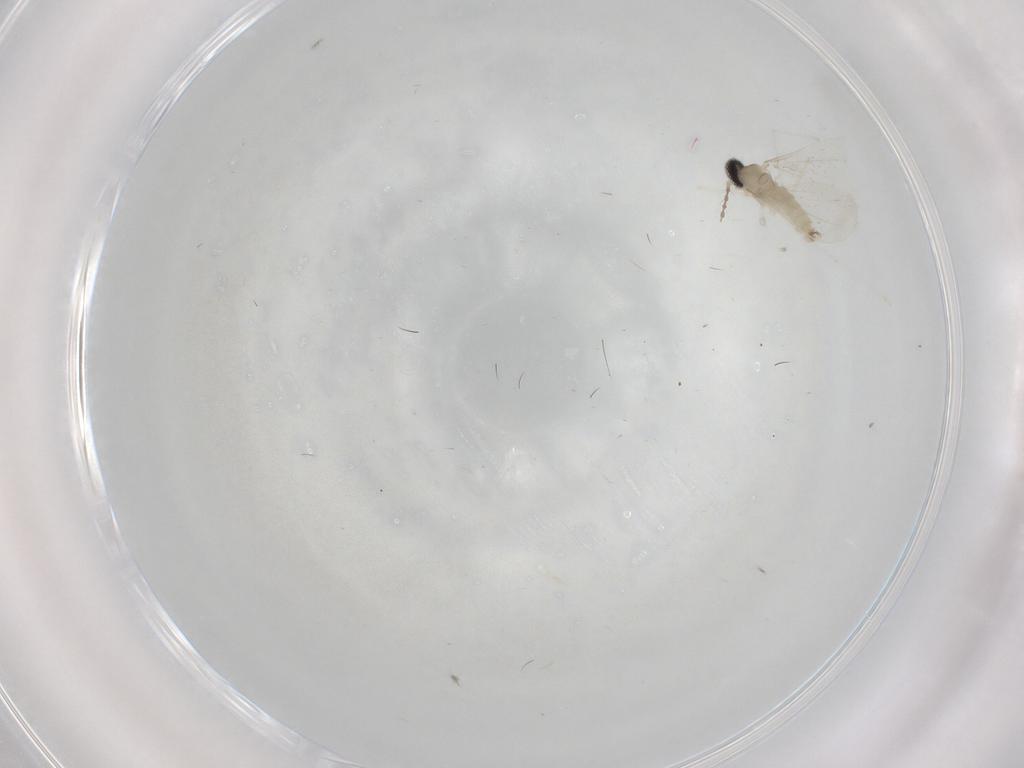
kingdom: Animalia
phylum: Arthropoda
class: Insecta
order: Diptera
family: Cecidomyiidae
